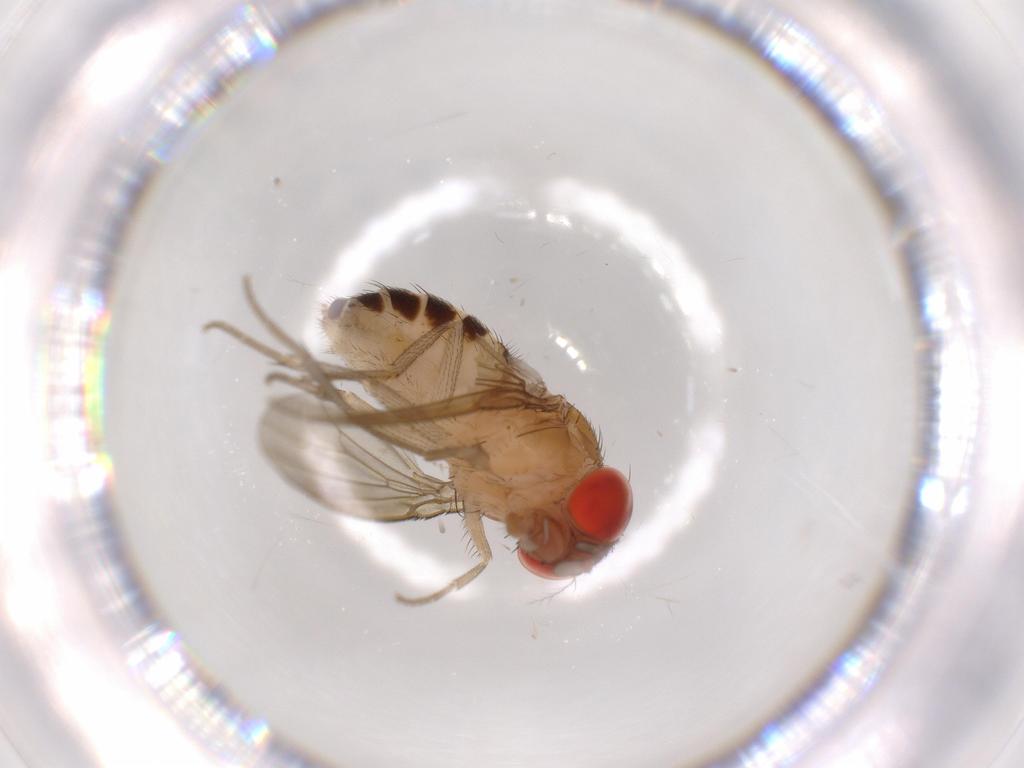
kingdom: Animalia
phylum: Arthropoda
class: Insecta
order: Diptera
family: Drosophilidae
